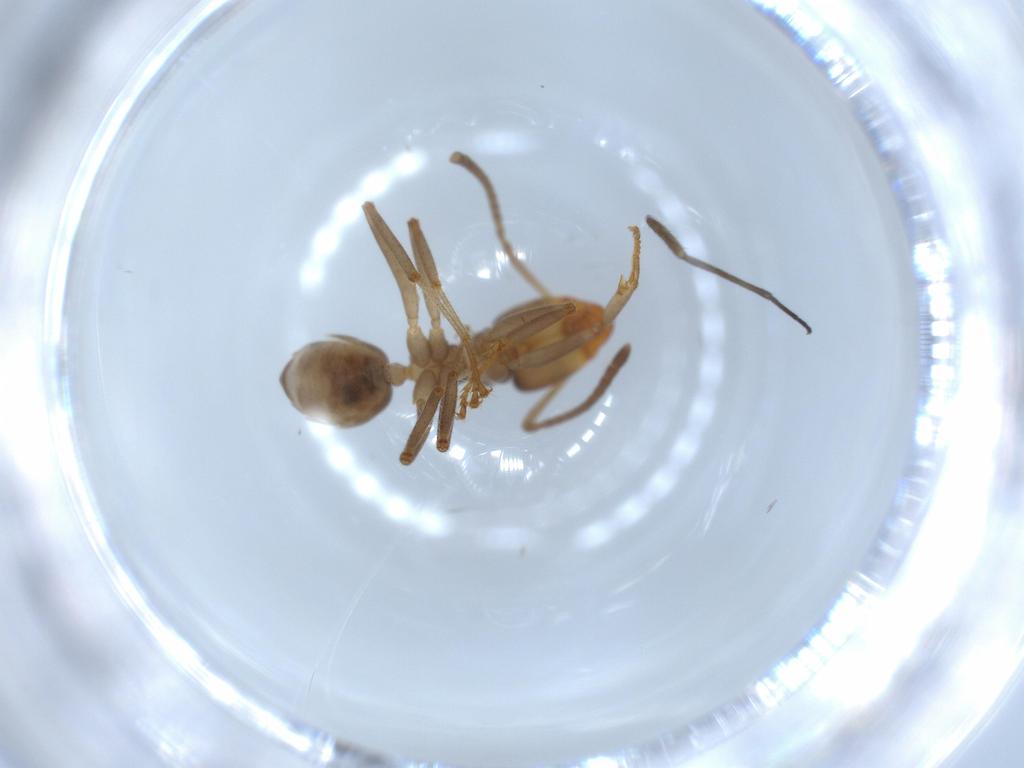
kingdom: Animalia
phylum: Arthropoda
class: Insecta
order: Hymenoptera
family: Formicidae
